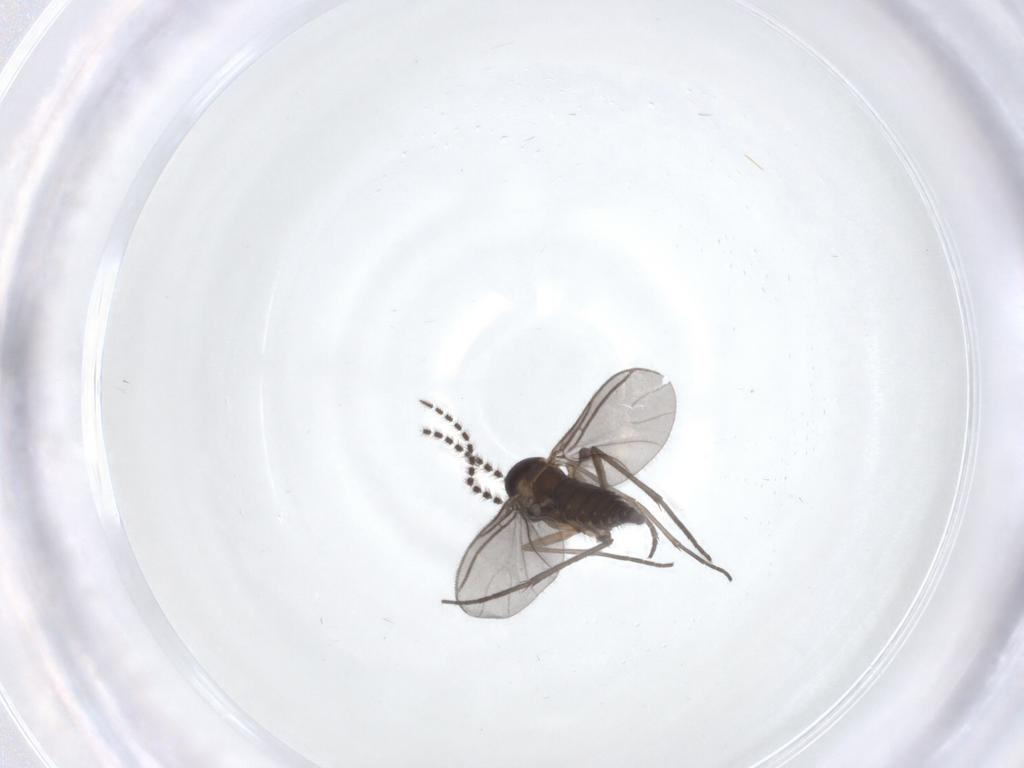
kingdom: Animalia
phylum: Arthropoda
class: Insecta
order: Diptera
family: Sciaridae
